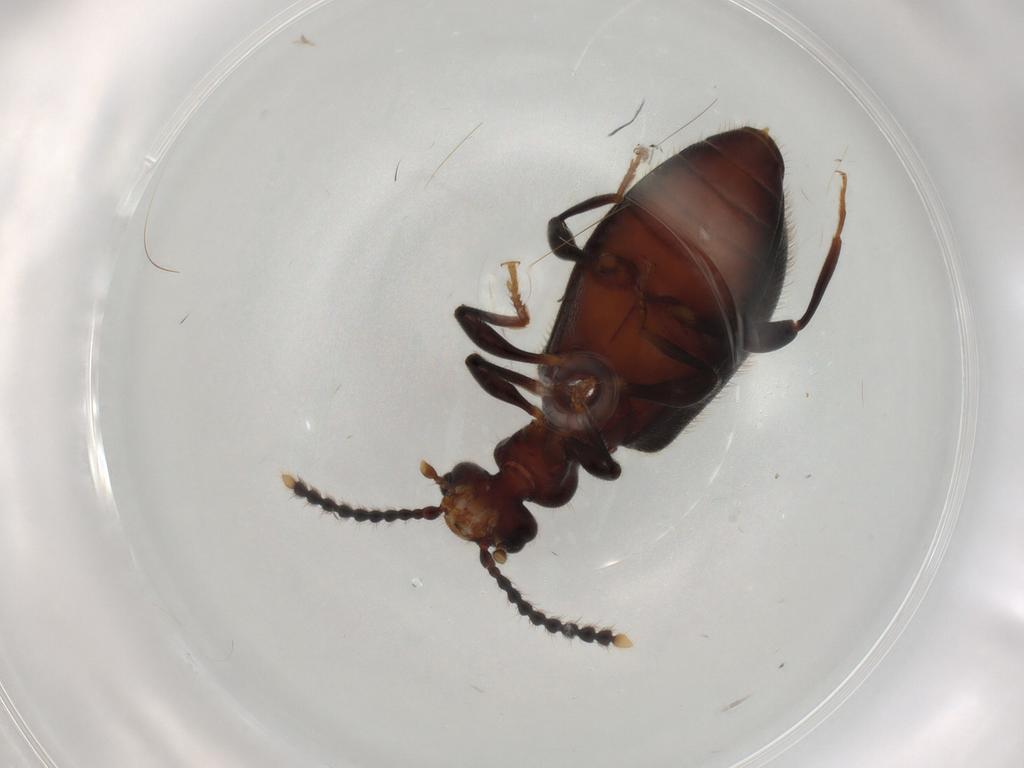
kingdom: Animalia
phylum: Arthropoda
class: Insecta
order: Coleoptera
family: Anthicidae
